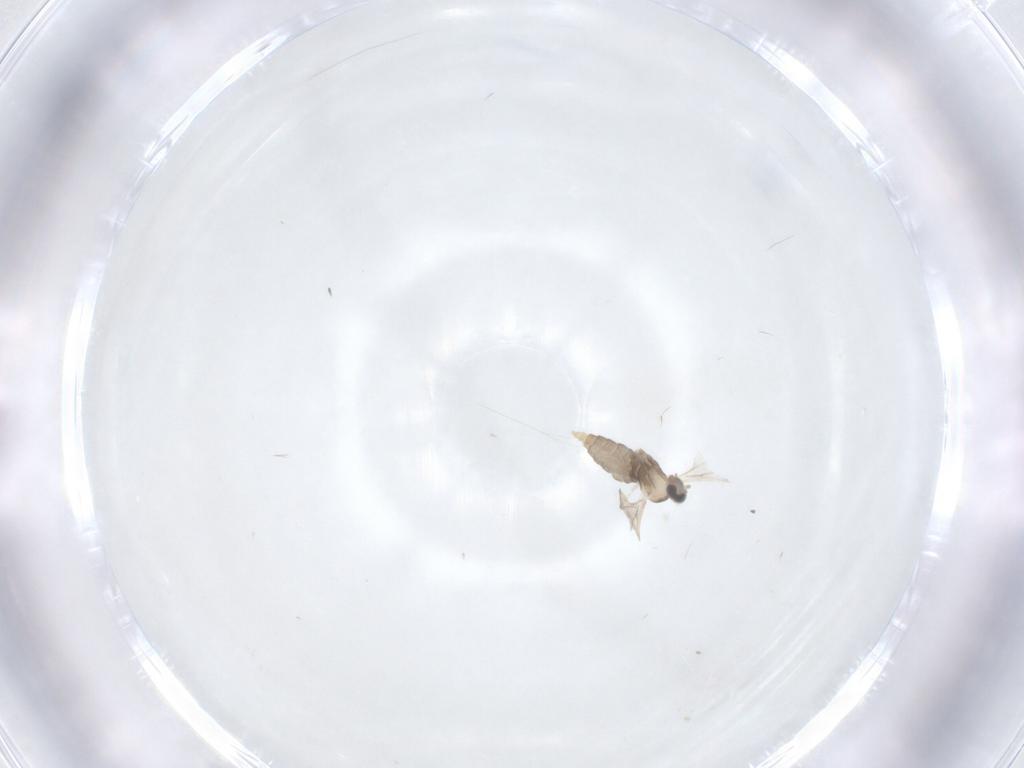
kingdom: Animalia
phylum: Arthropoda
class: Insecta
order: Diptera
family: Cecidomyiidae
